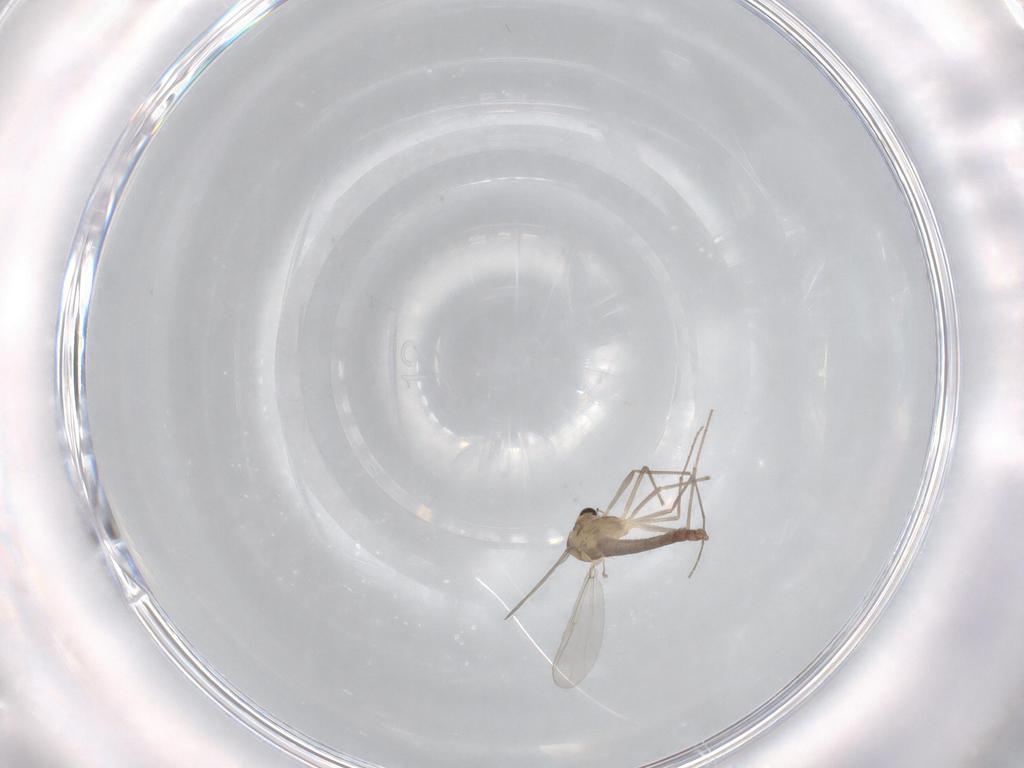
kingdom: Animalia
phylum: Arthropoda
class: Insecta
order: Diptera
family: Chironomidae
